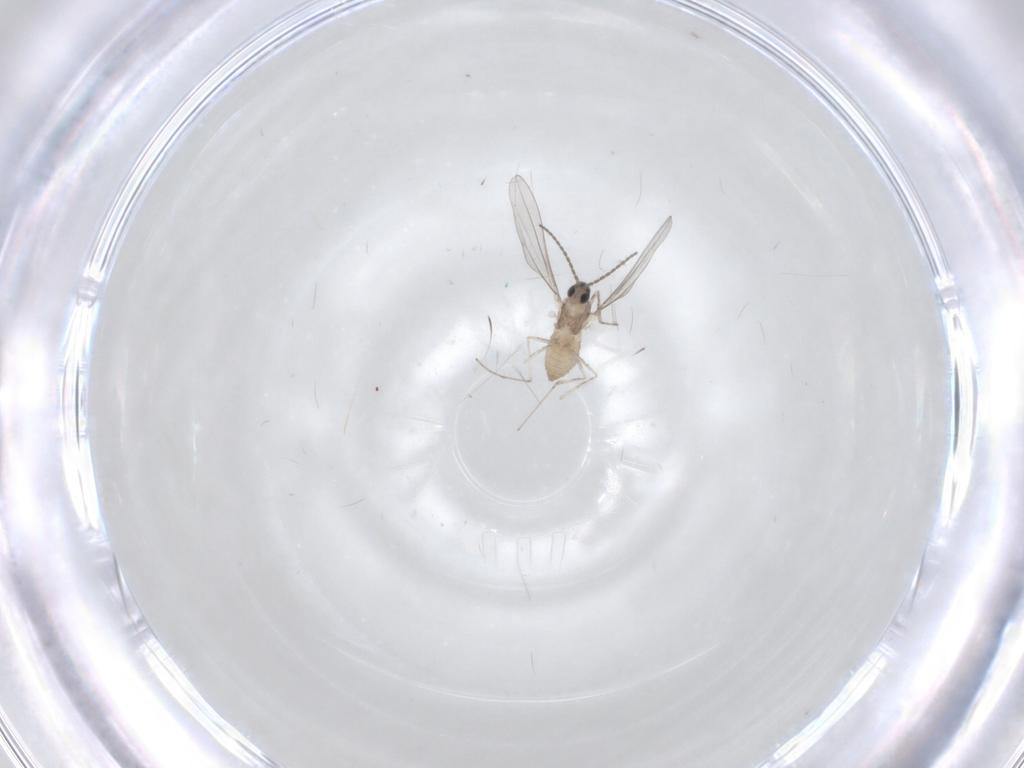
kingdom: Animalia
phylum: Arthropoda
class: Insecta
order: Diptera
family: Cecidomyiidae
